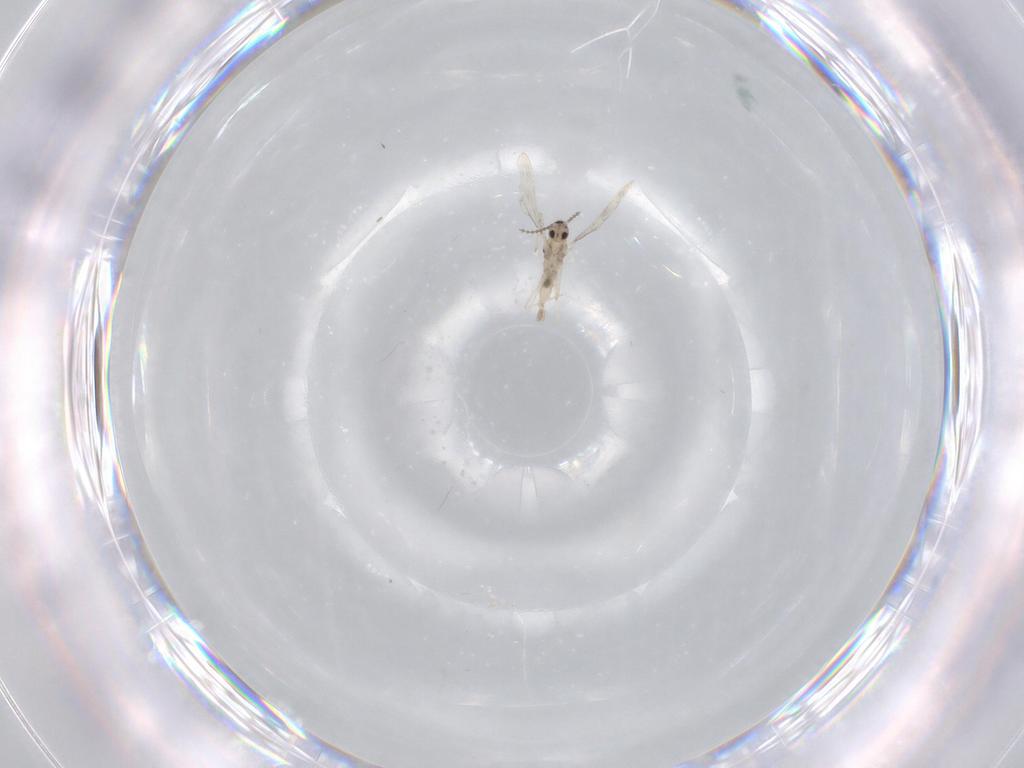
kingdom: Animalia
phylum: Arthropoda
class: Insecta
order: Diptera
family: Cecidomyiidae
